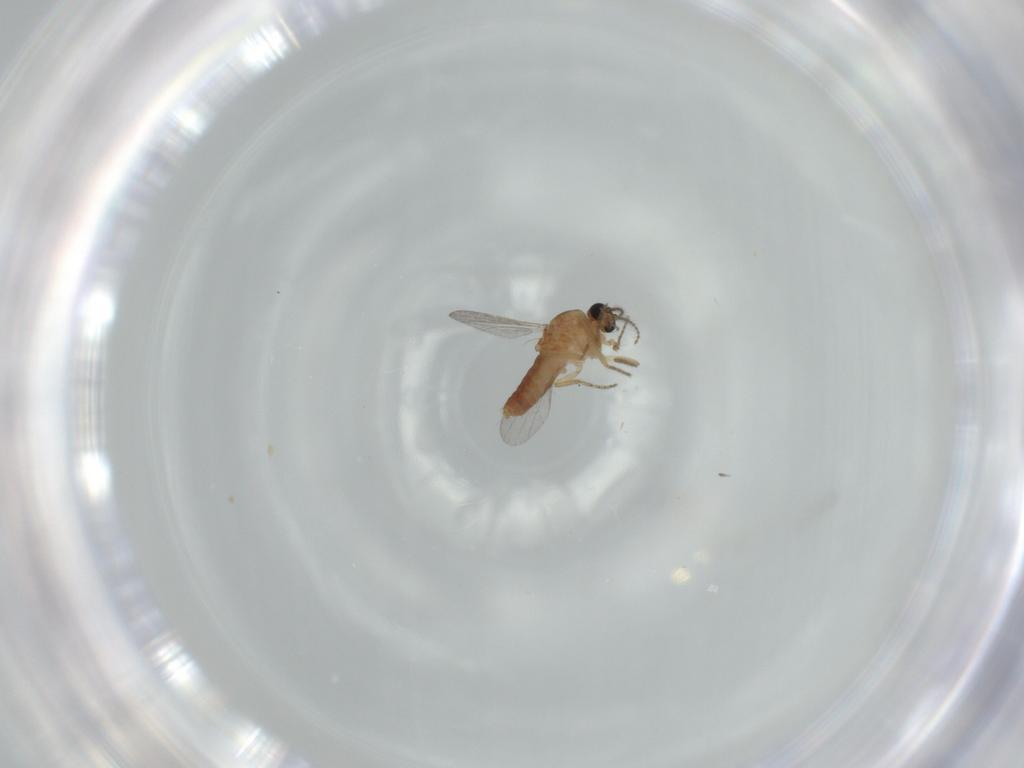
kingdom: Animalia
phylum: Arthropoda
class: Insecta
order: Diptera
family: Ceratopogonidae
